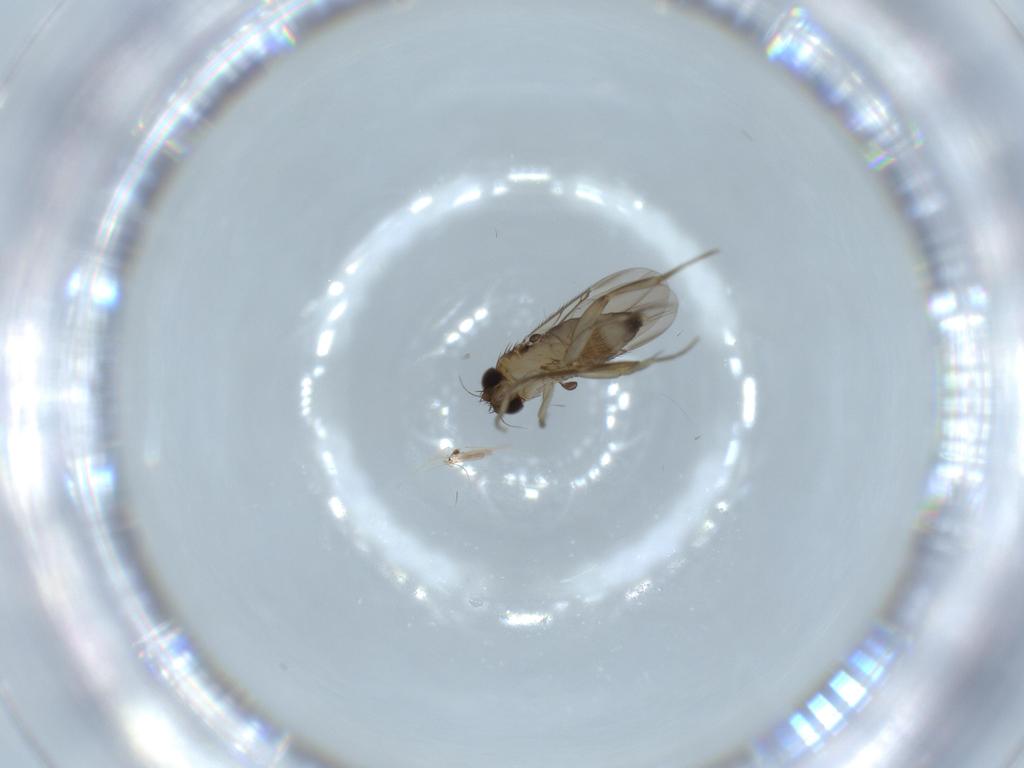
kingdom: Animalia
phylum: Arthropoda
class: Insecta
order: Diptera
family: Phoridae
